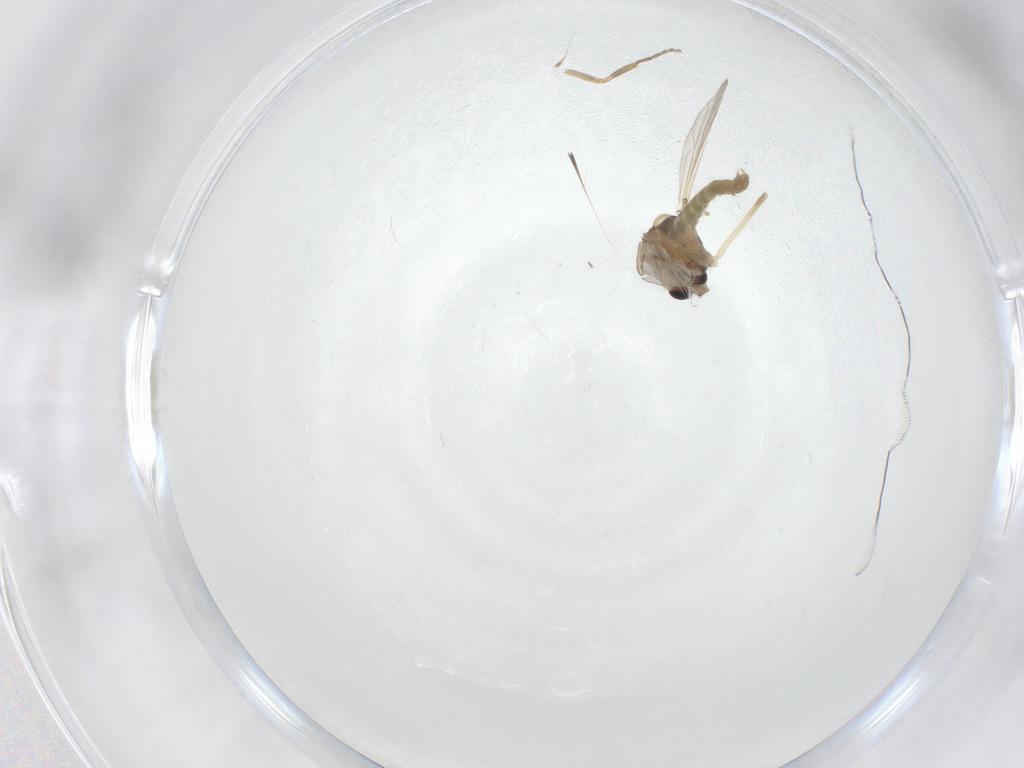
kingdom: Animalia
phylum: Arthropoda
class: Insecta
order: Diptera
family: Chironomidae
